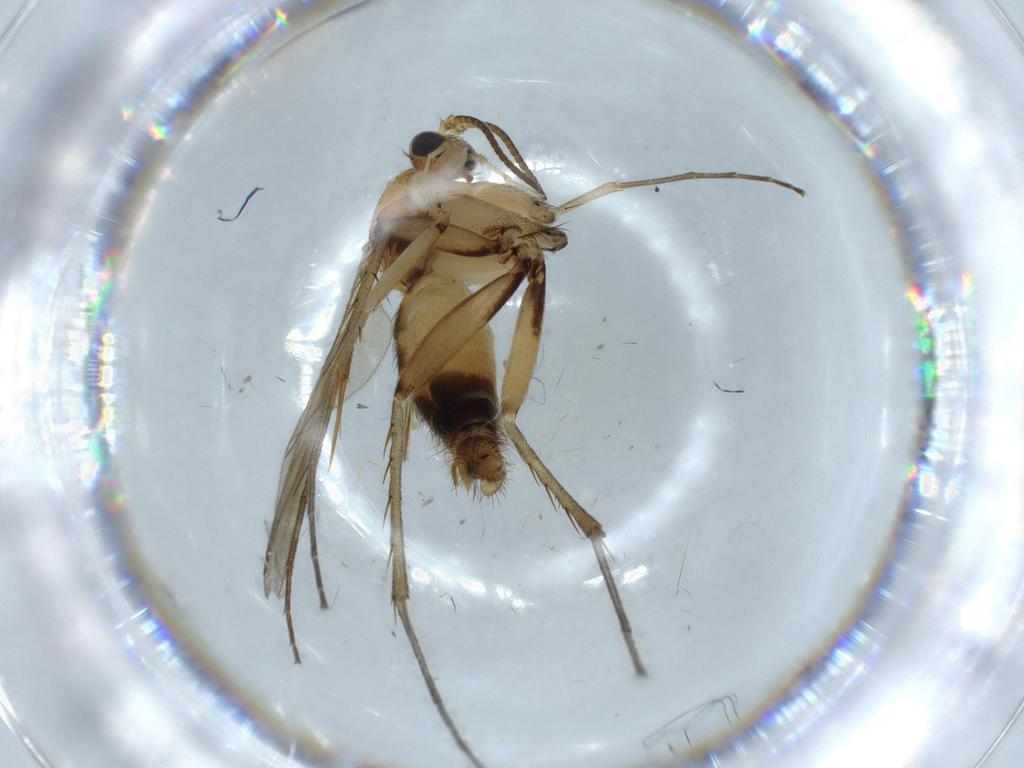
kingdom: Animalia
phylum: Arthropoda
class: Insecta
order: Diptera
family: Mycetophilidae
